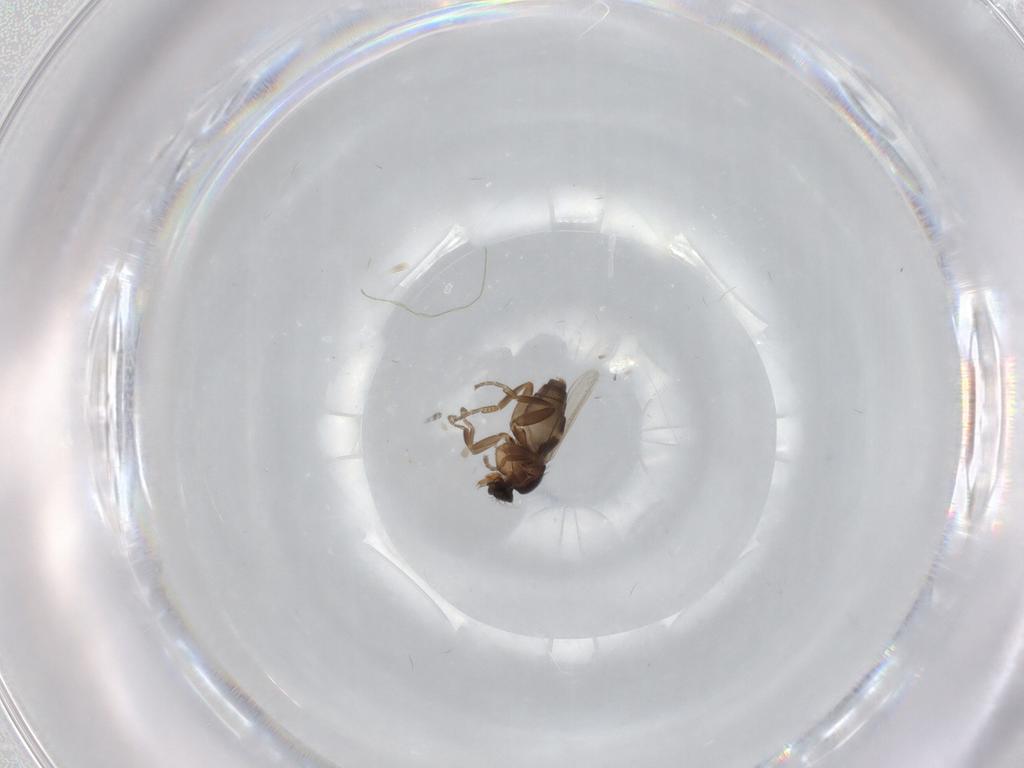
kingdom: Animalia
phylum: Arthropoda
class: Insecta
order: Diptera
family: Phoridae
